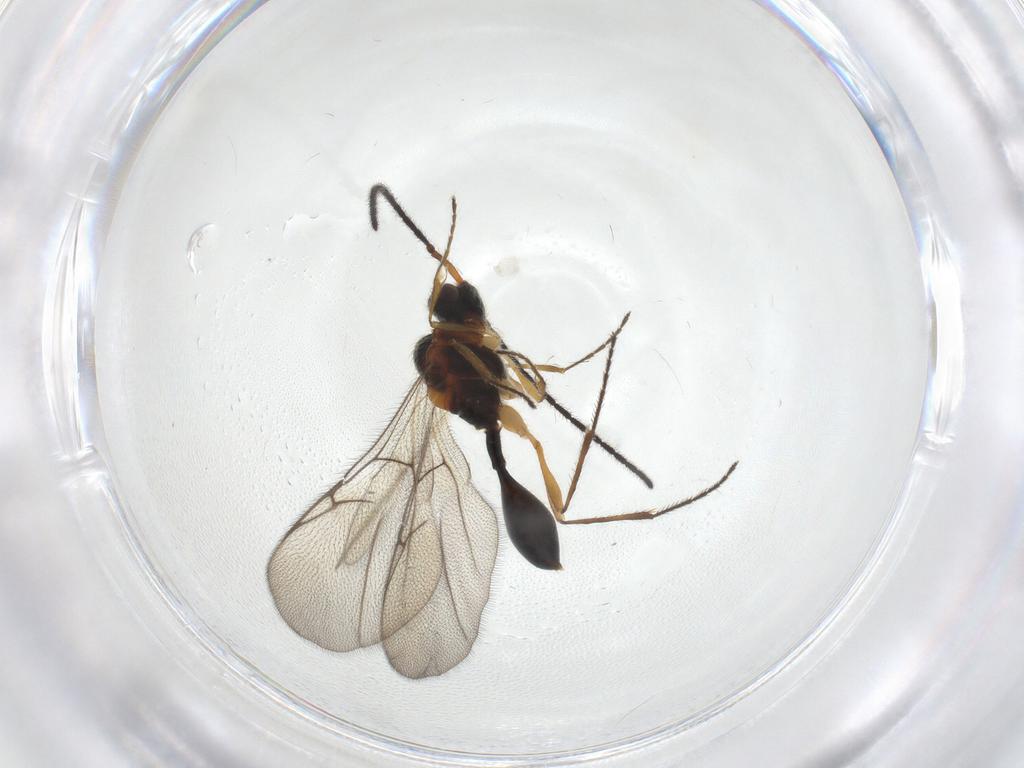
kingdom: Animalia
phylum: Arthropoda
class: Insecta
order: Hymenoptera
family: Diapriidae
